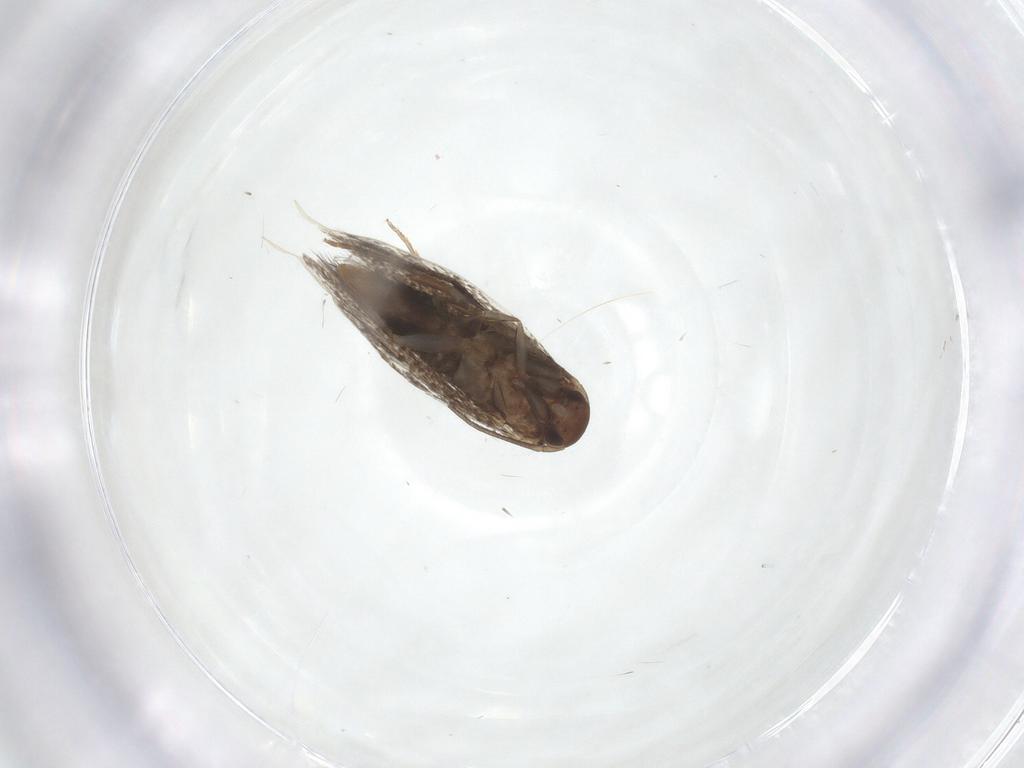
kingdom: Animalia
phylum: Arthropoda
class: Insecta
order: Lepidoptera
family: Elachistidae
